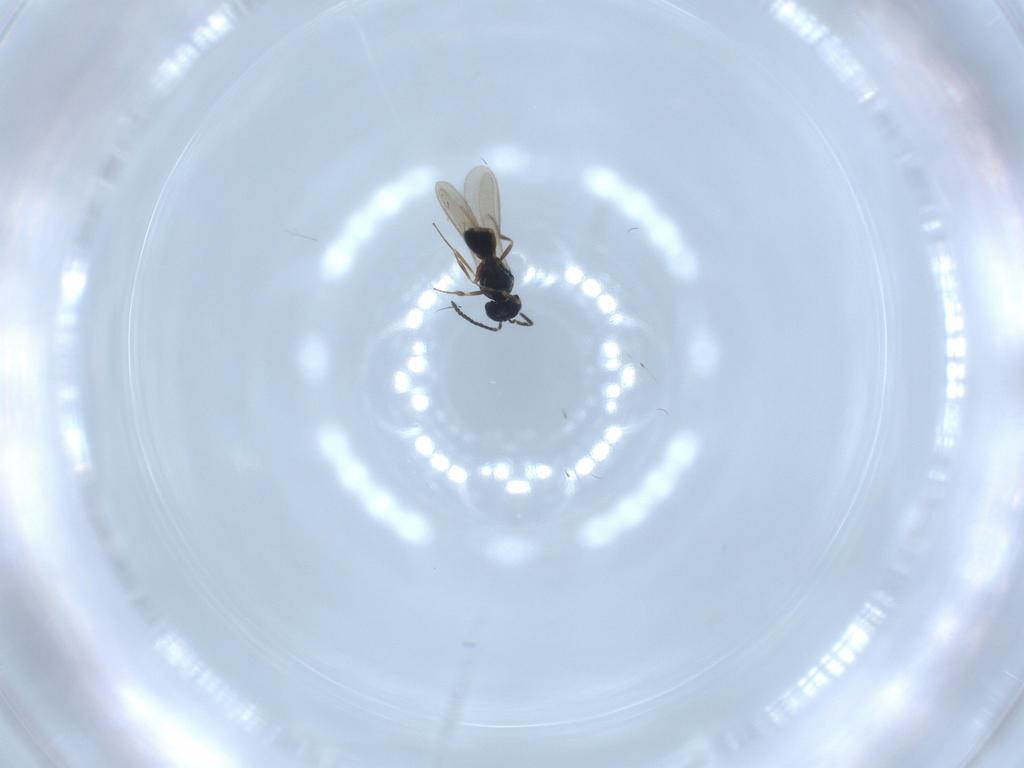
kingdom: Animalia
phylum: Arthropoda
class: Insecta
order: Hymenoptera
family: Scelionidae
